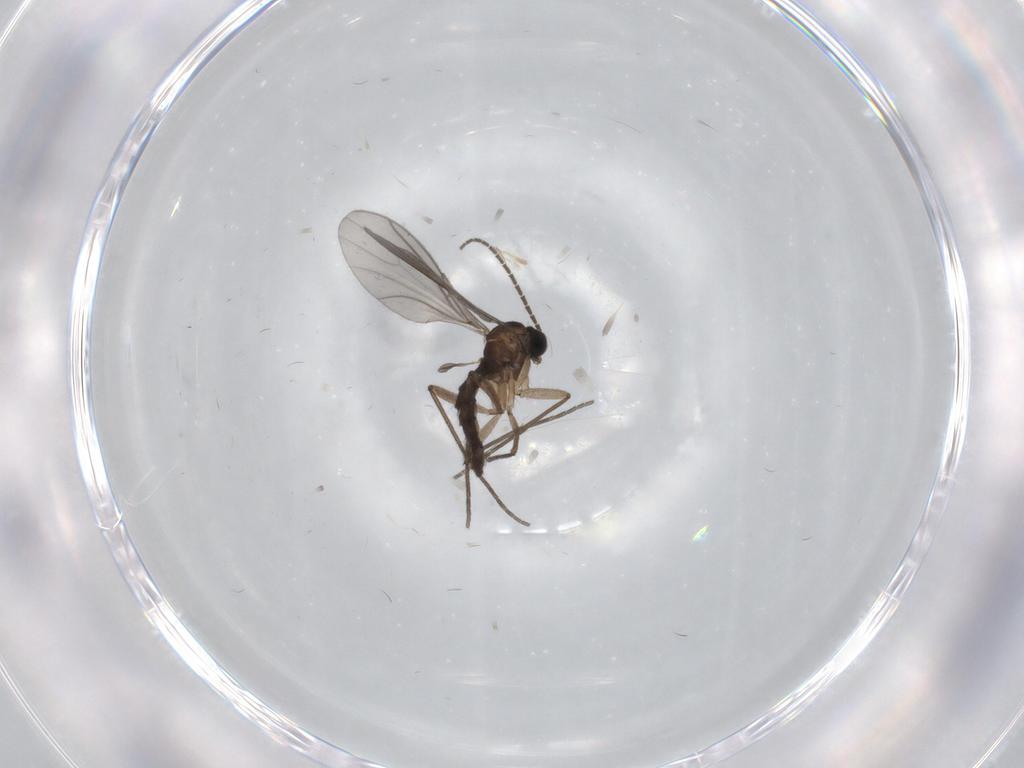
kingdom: Animalia
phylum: Arthropoda
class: Insecta
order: Diptera
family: Sciaridae
